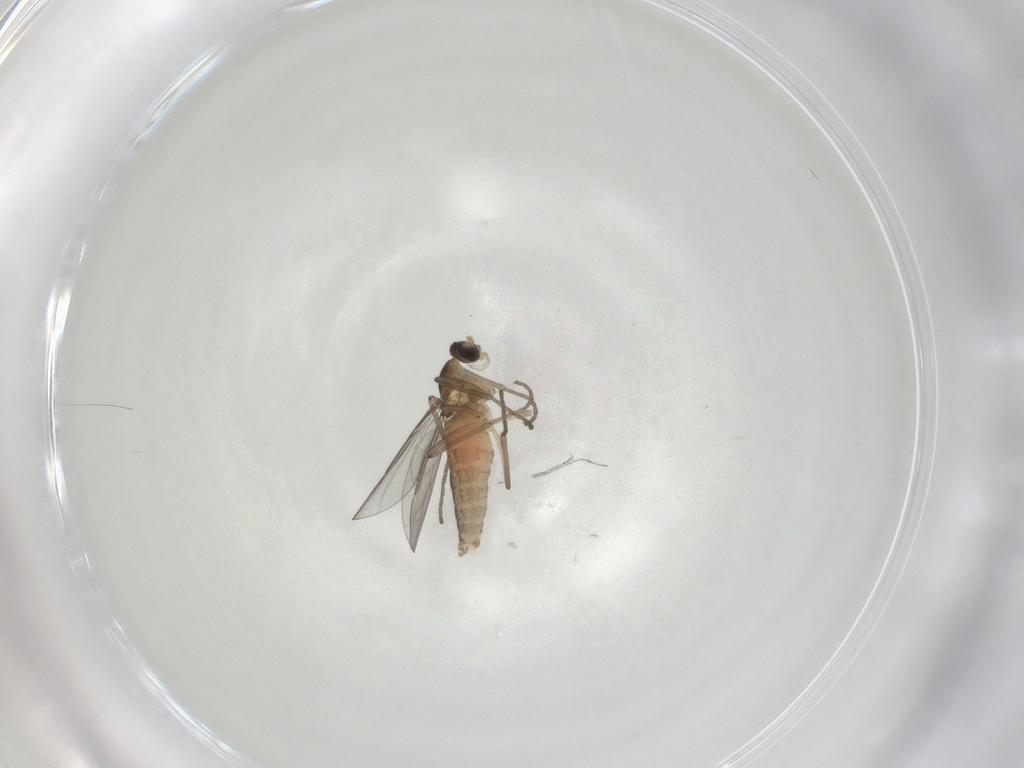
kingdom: Animalia
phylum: Arthropoda
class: Insecta
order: Diptera
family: Cecidomyiidae
